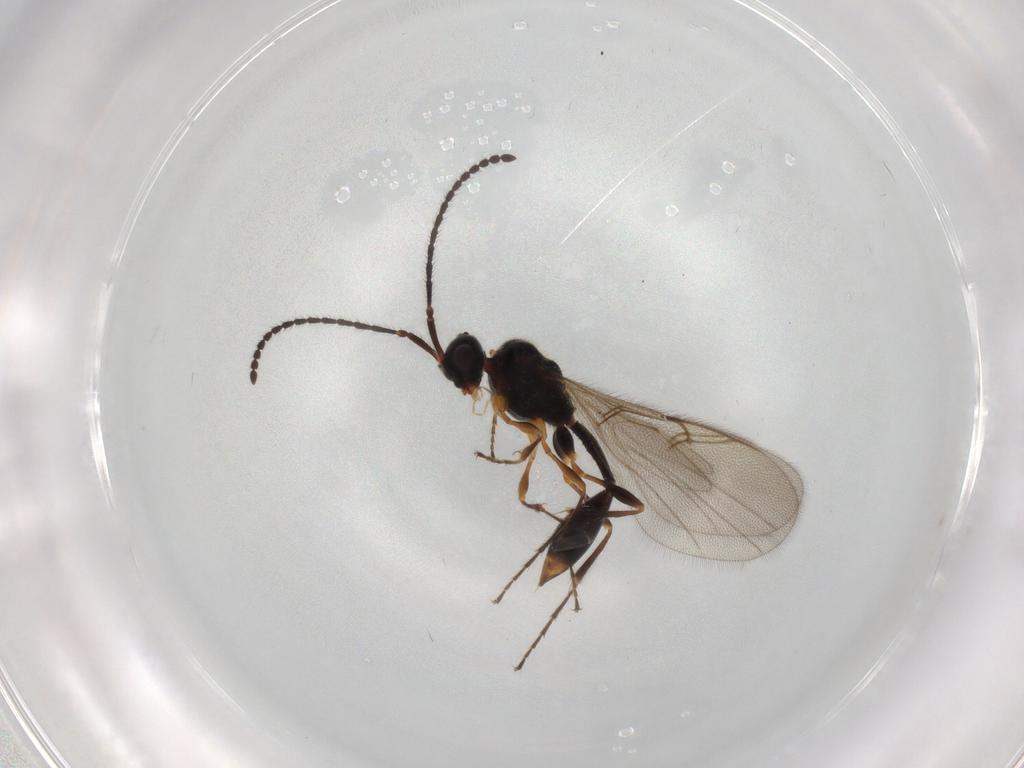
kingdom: Animalia
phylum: Arthropoda
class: Insecta
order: Hymenoptera
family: Diapriidae
